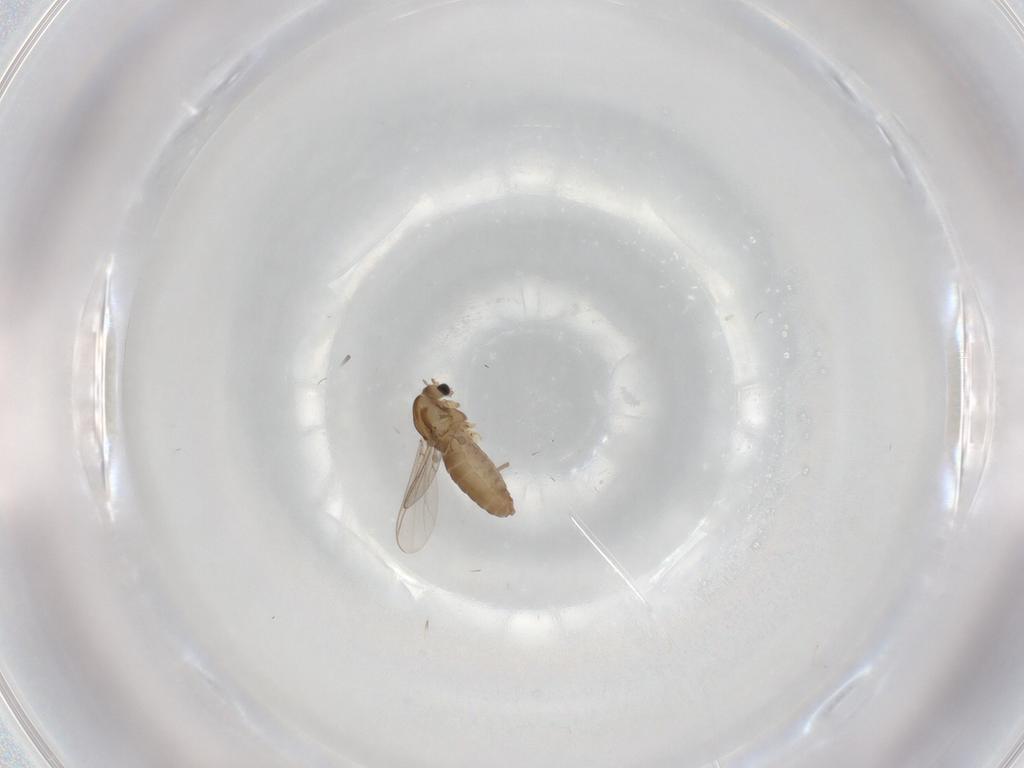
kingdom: Animalia
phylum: Arthropoda
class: Insecta
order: Diptera
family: Chironomidae
